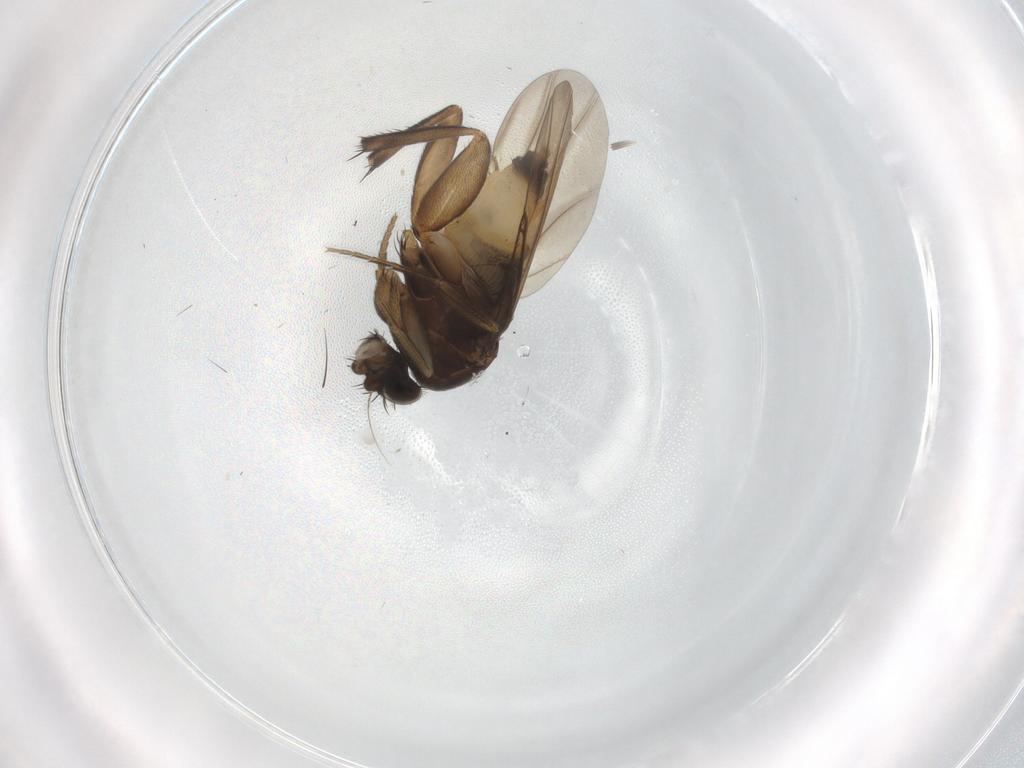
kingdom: Animalia
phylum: Arthropoda
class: Insecta
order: Diptera
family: Phoridae
